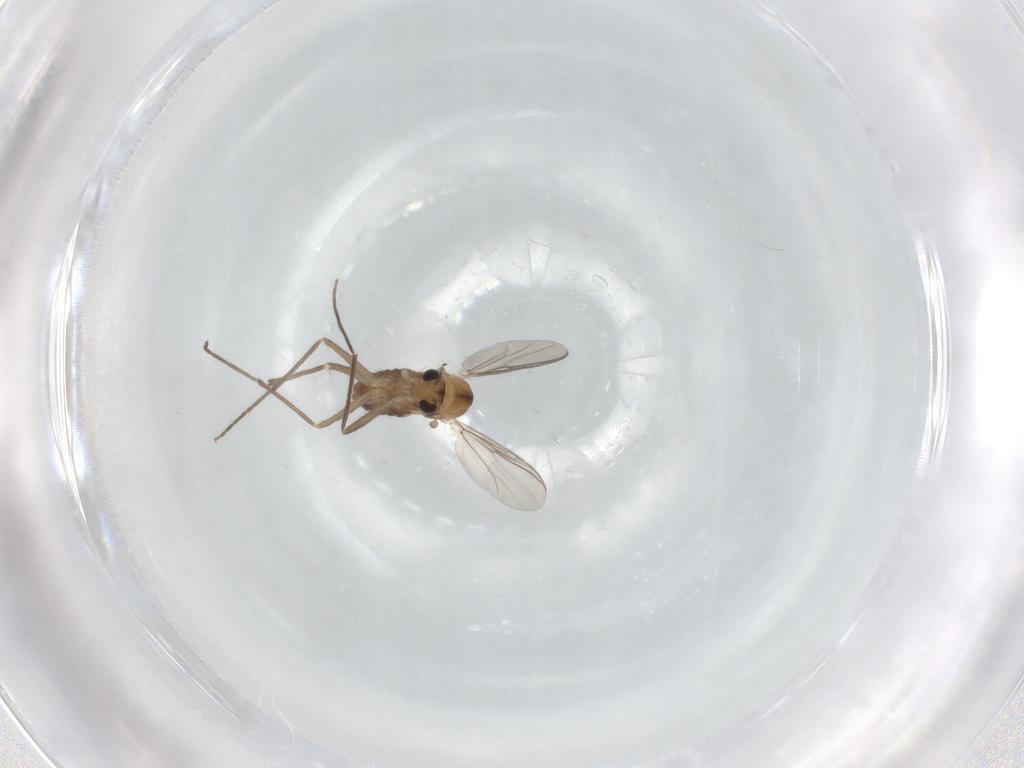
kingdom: Animalia
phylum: Arthropoda
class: Insecta
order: Diptera
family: Chironomidae
